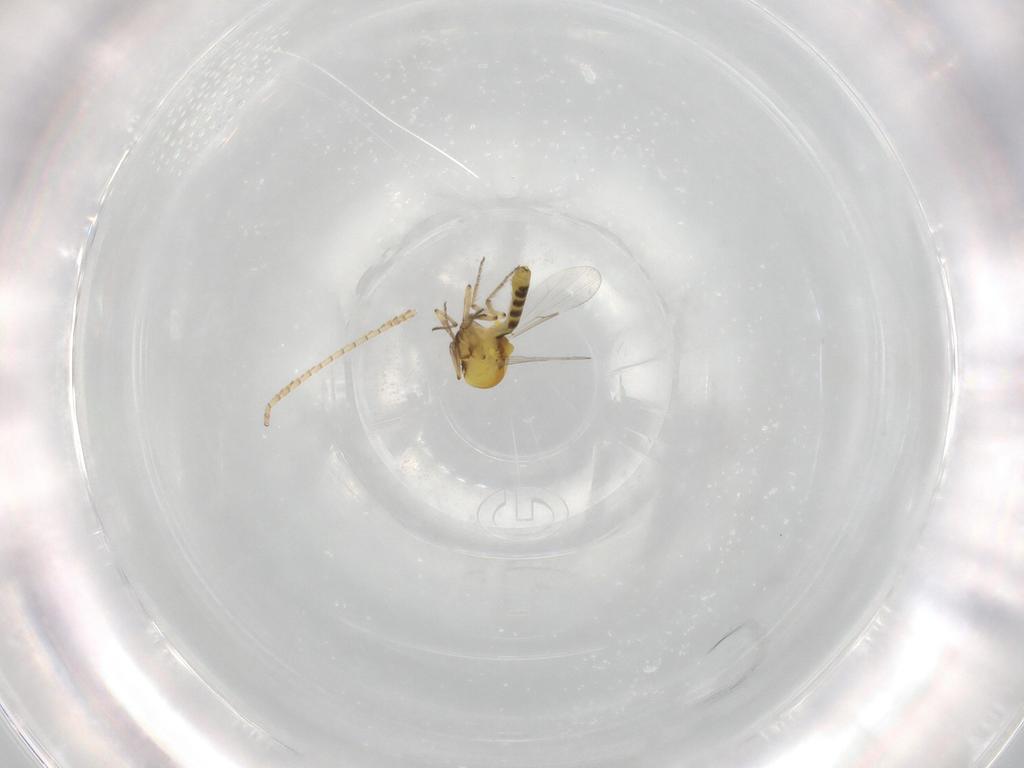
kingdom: Animalia
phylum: Arthropoda
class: Insecta
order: Diptera
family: Ceratopogonidae
